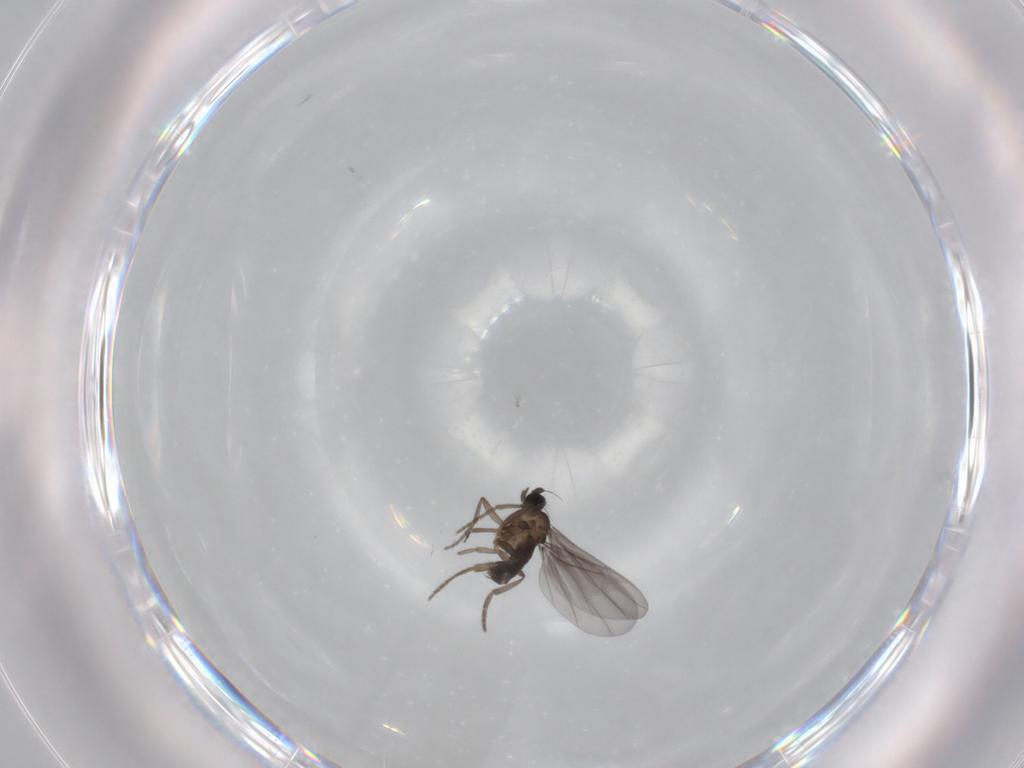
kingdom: Animalia
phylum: Arthropoda
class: Insecta
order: Diptera
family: Phoridae
